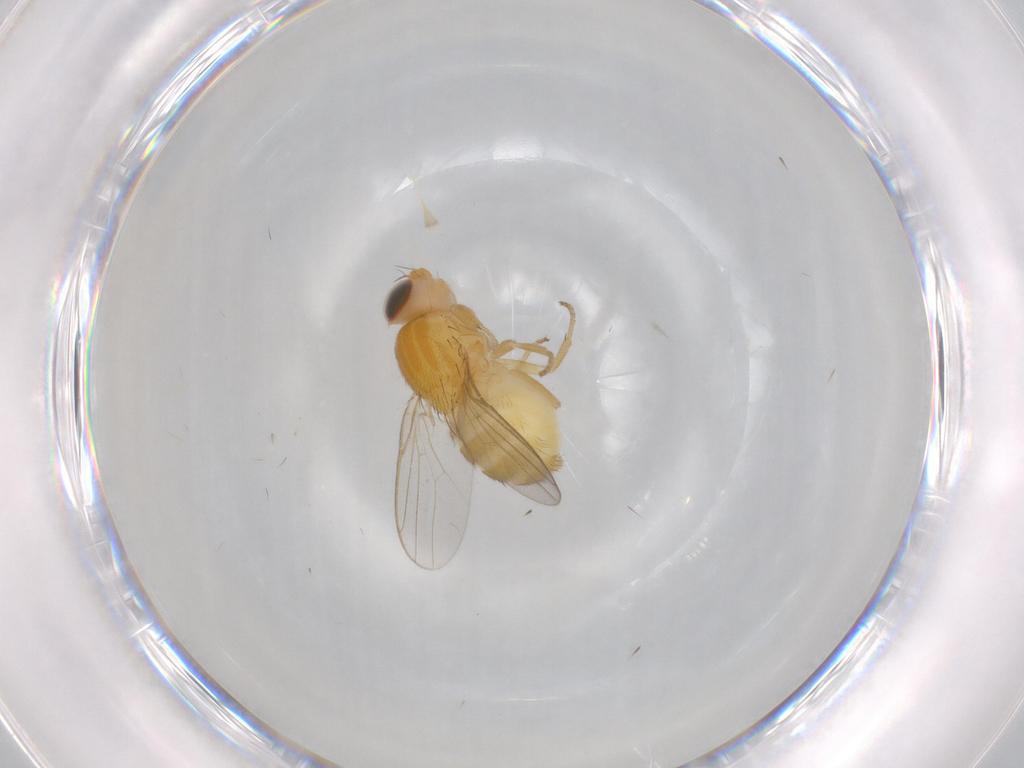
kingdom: Animalia
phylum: Arthropoda
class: Insecta
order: Diptera
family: Chloropidae
